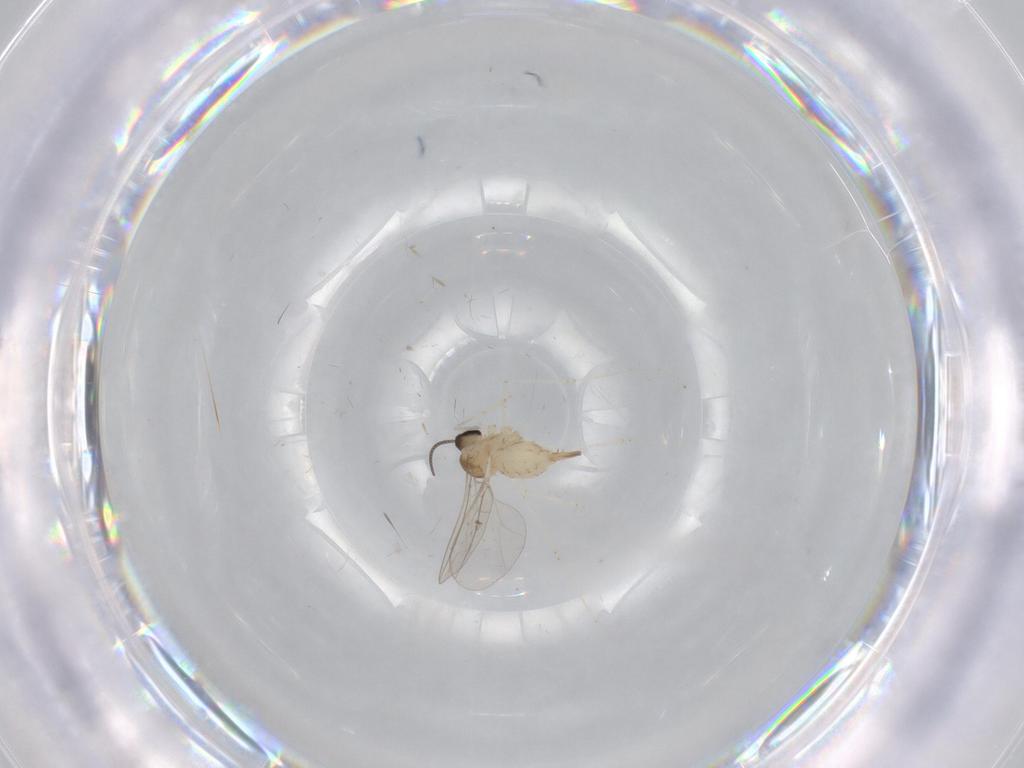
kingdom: Animalia
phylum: Arthropoda
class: Insecta
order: Diptera
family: Cecidomyiidae
